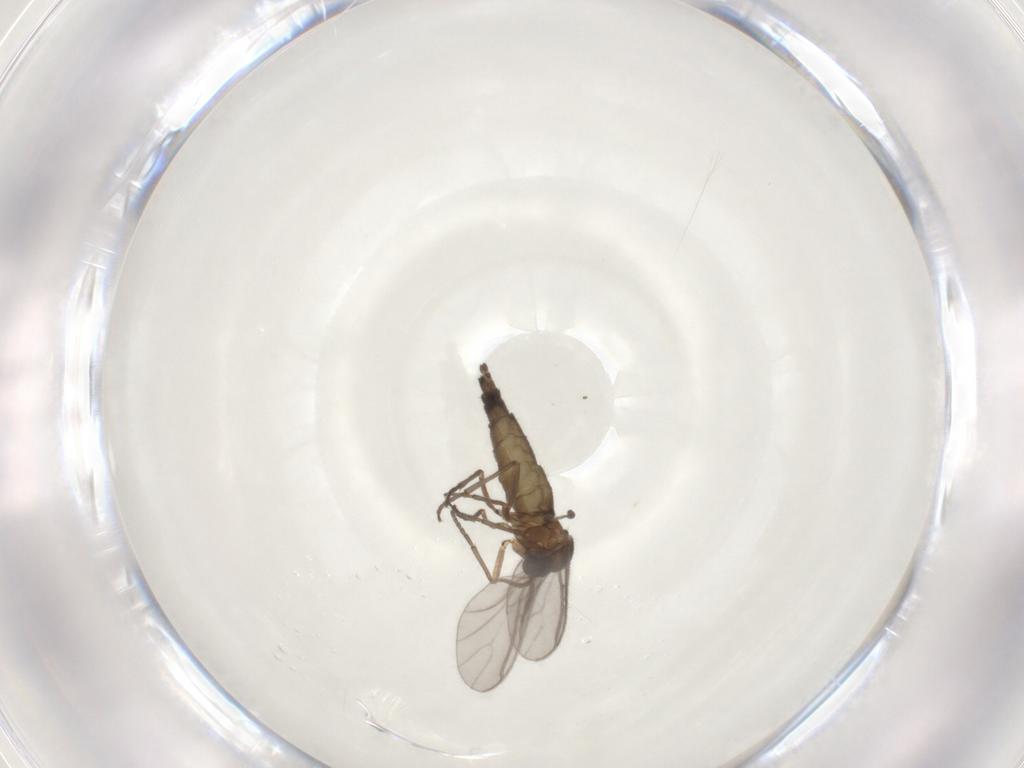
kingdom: Animalia
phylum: Arthropoda
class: Insecta
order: Diptera
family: Sciaridae
